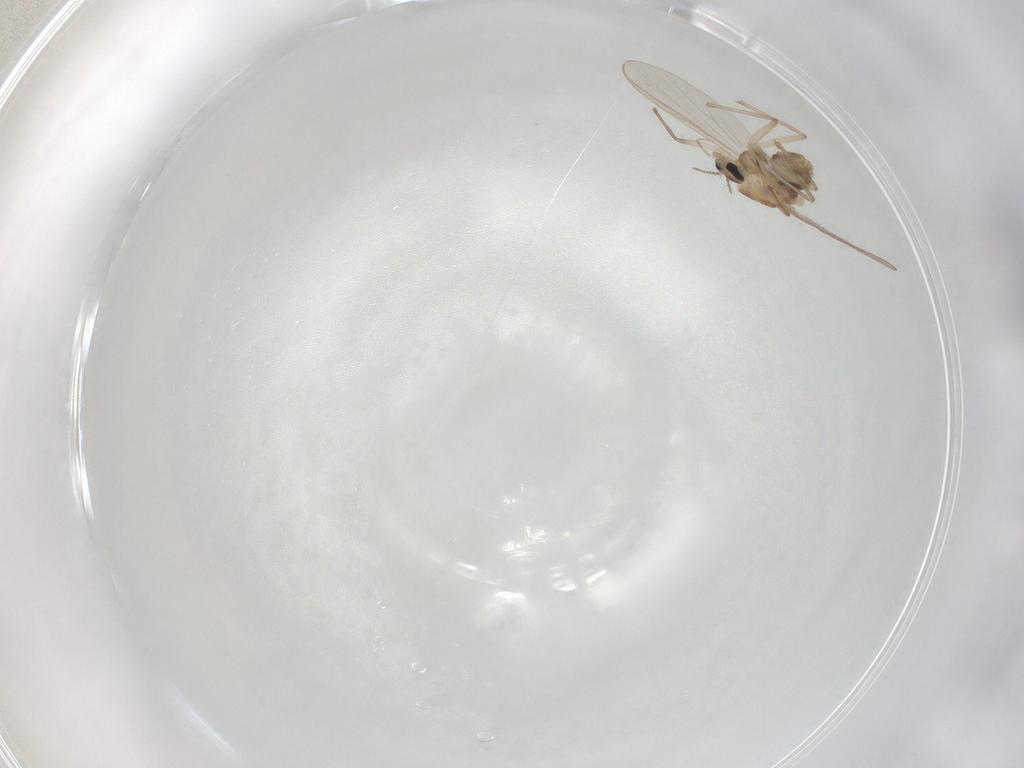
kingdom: Animalia
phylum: Arthropoda
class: Insecta
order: Diptera
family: Chironomidae
